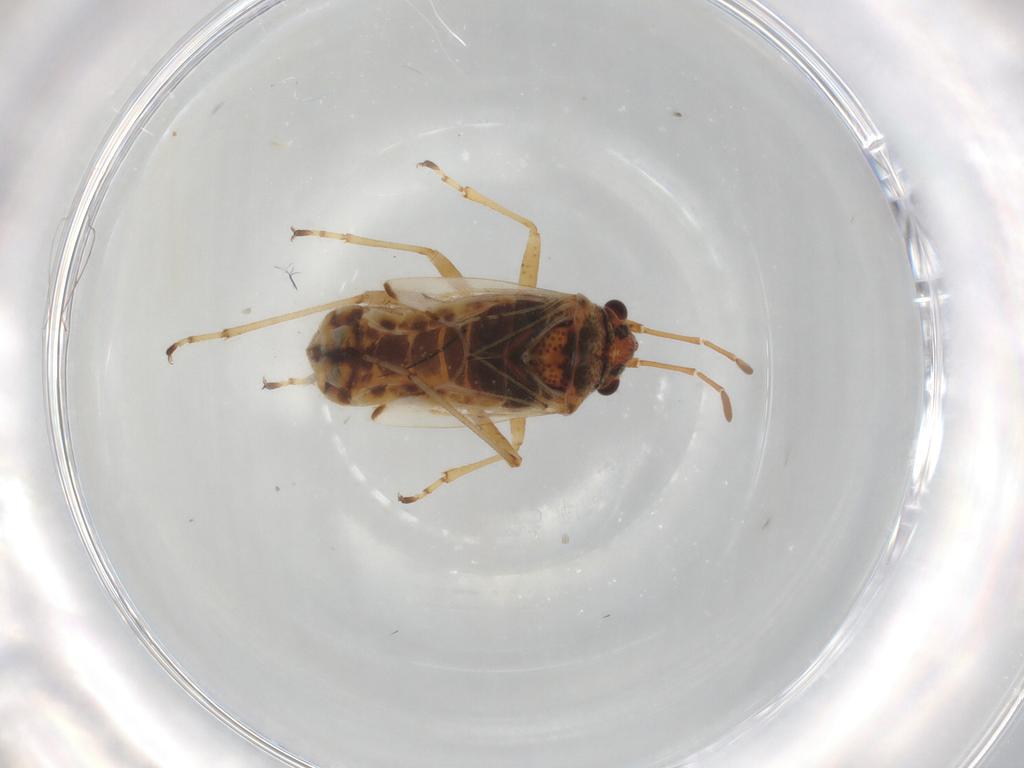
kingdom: Animalia
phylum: Arthropoda
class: Insecta
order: Hemiptera
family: Lygaeidae
